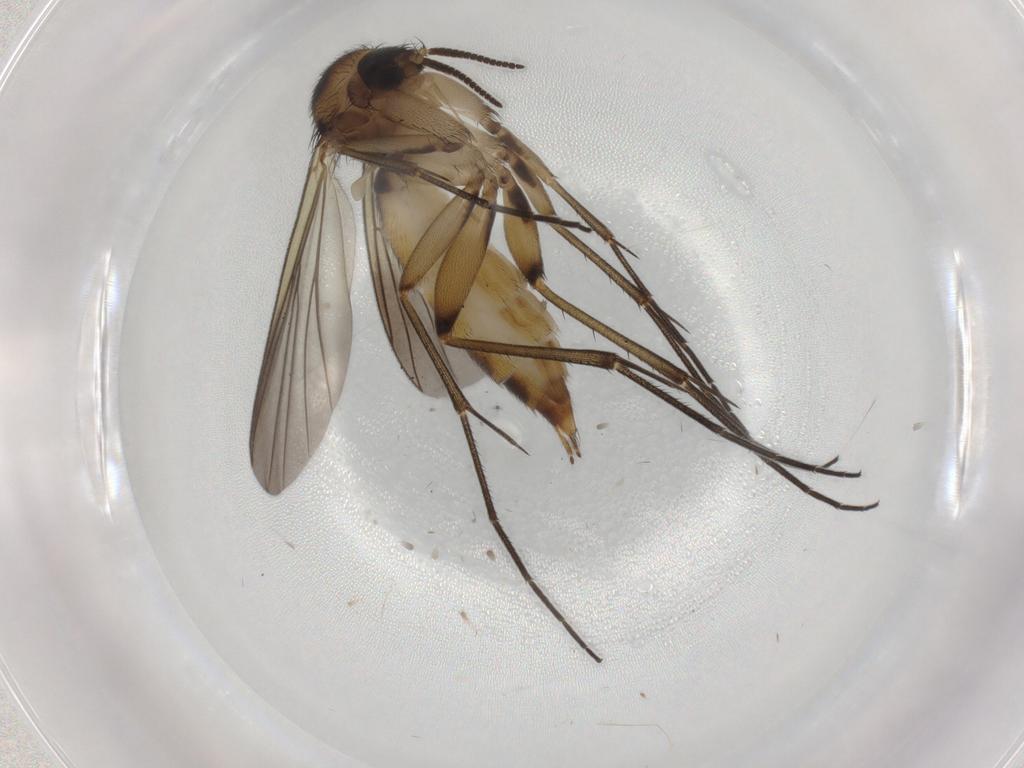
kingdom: Animalia
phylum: Arthropoda
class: Insecta
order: Diptera
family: Mycetophilidae
